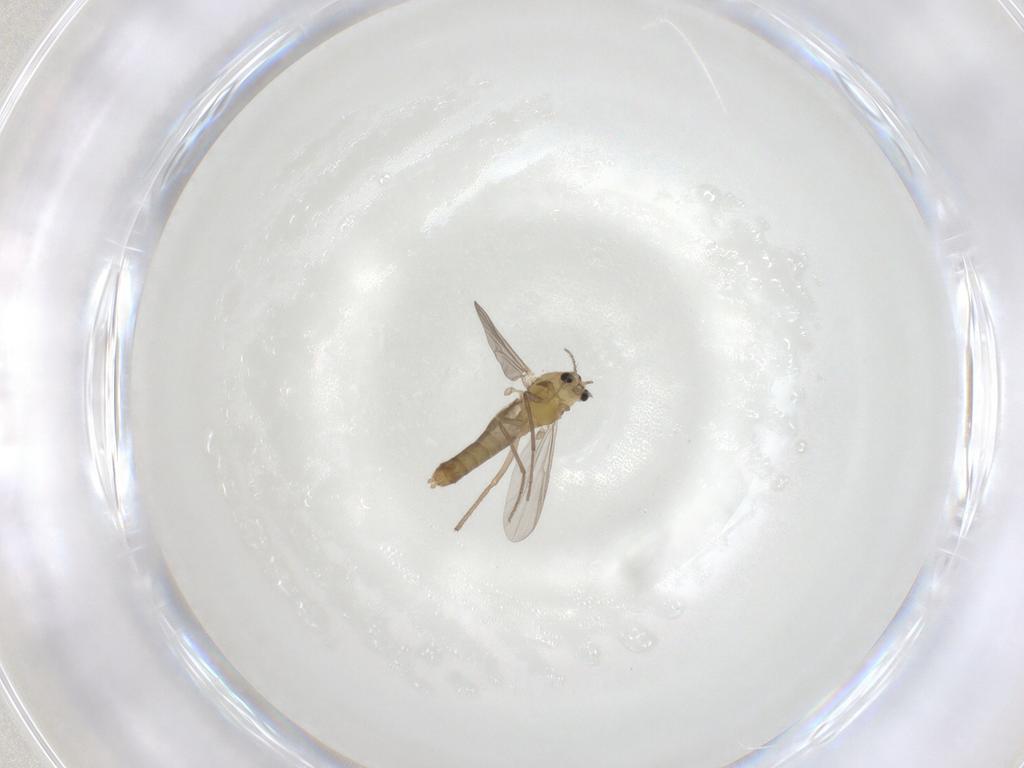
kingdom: Animalia
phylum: Arthropoda
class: Insecta
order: Diptera
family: Chironomidae
